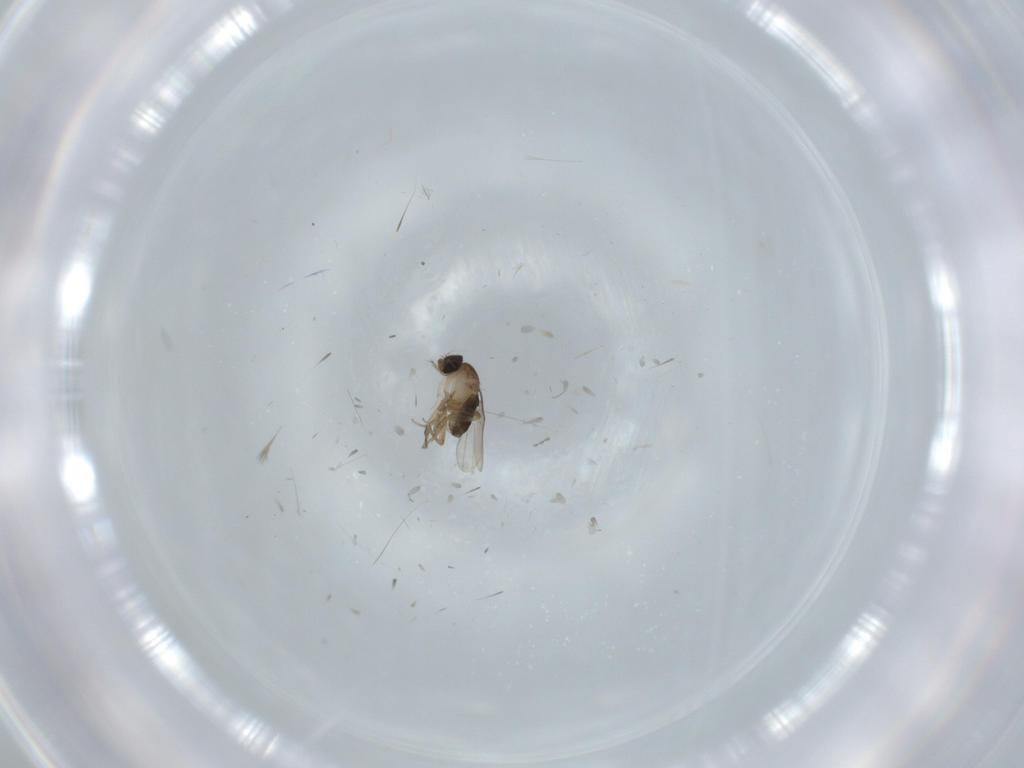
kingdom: Animalia
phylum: Arthropoda
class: Insecta
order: Diptera
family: Phoridae
